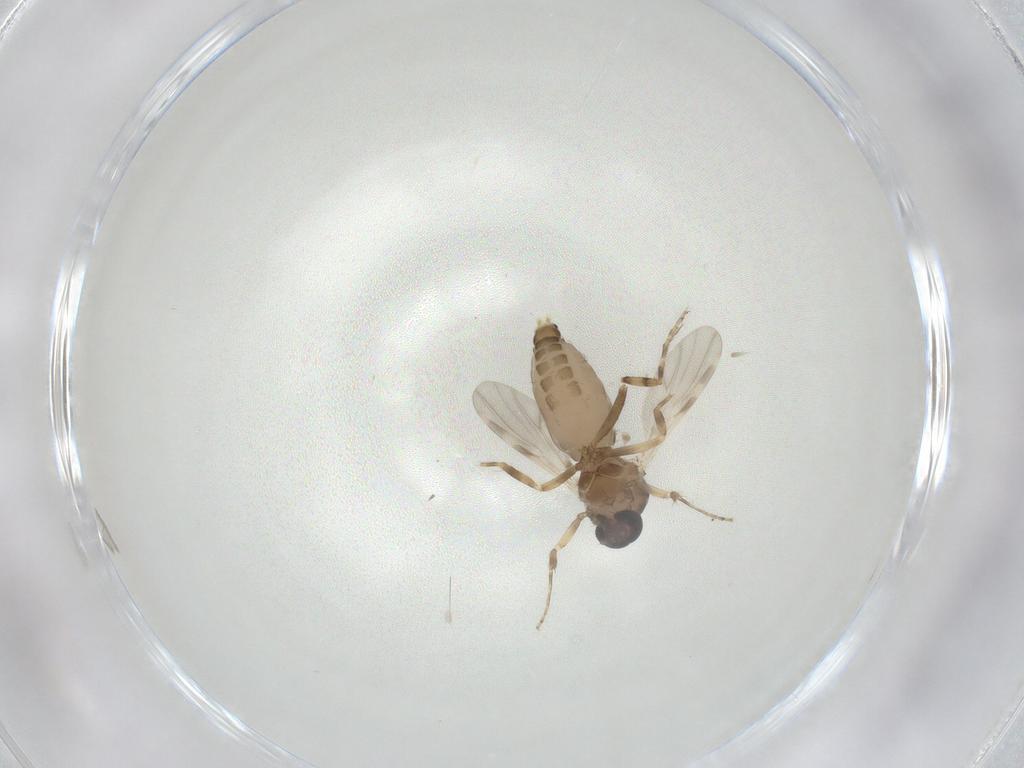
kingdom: Animalia
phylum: Arthropoda
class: Insecta
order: Diptera
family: Ceratopogonidae
